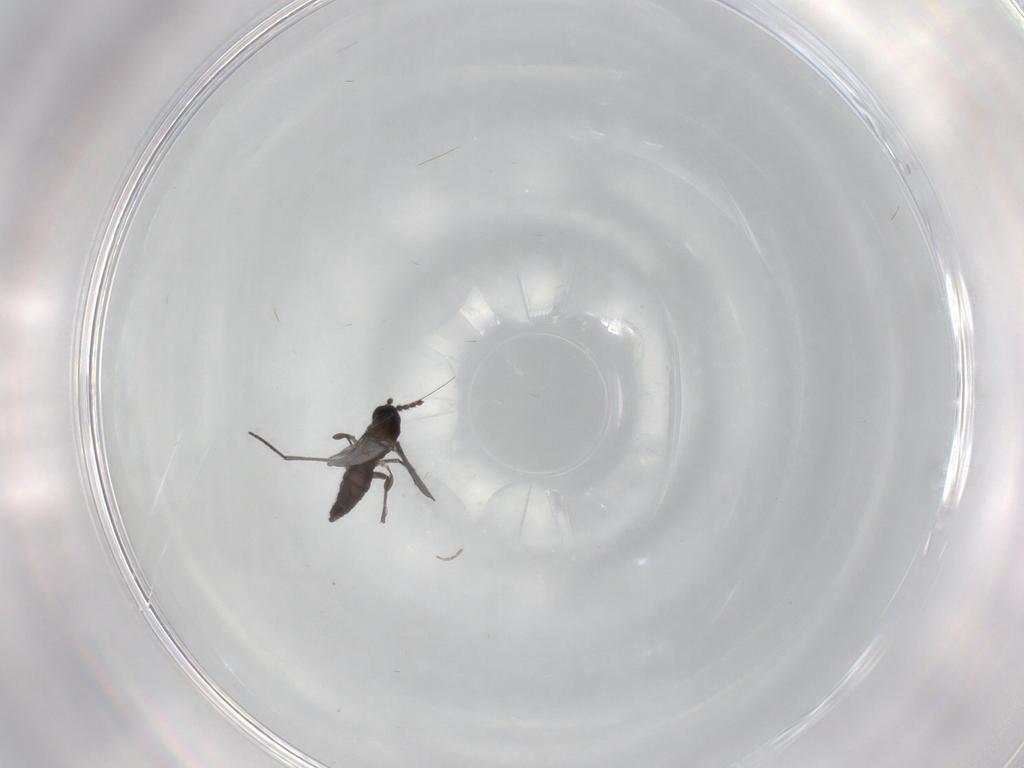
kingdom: Animalia
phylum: Arthropoda
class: Insecta
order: Diptera
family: Sciaridae
